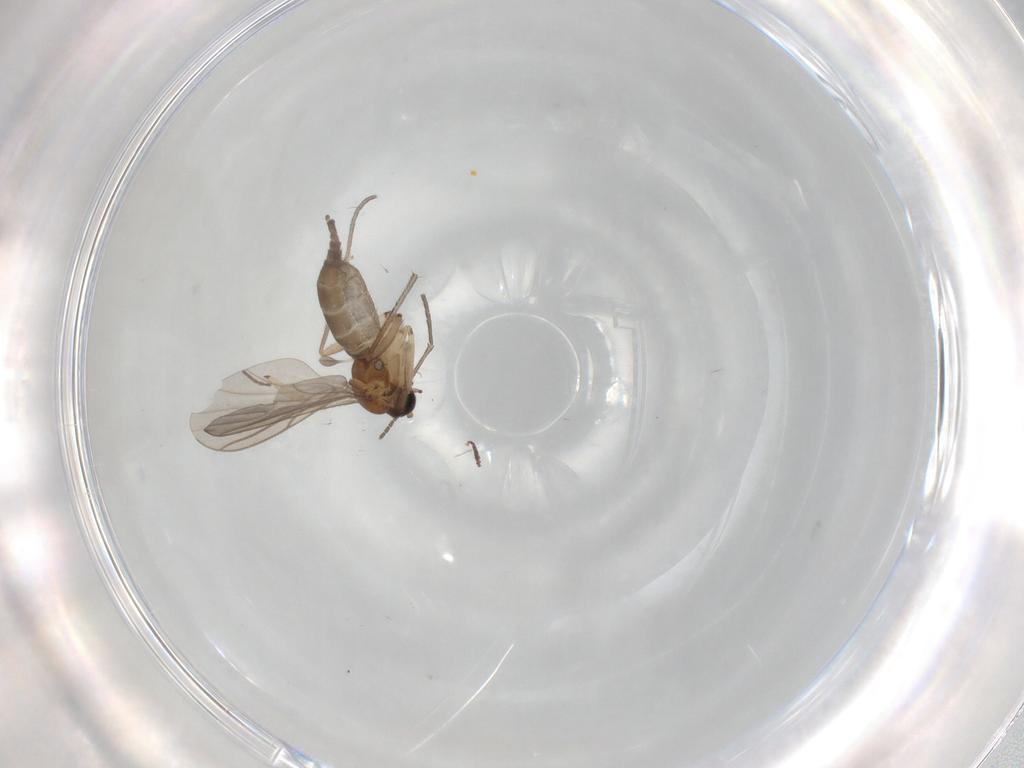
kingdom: Animalia
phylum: Arthropoda
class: Insecta
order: Diptera
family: Sciaridae
